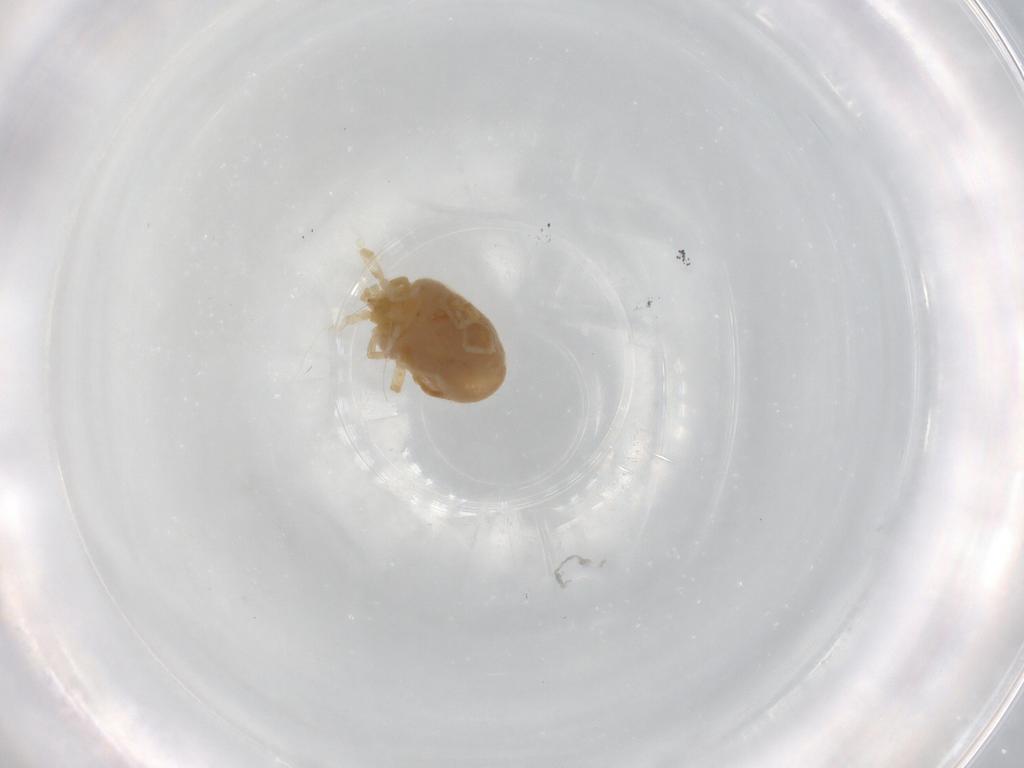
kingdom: Animalia
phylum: Arthropoda
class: Arachnida
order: Trombidiformes
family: Erythraeidae
